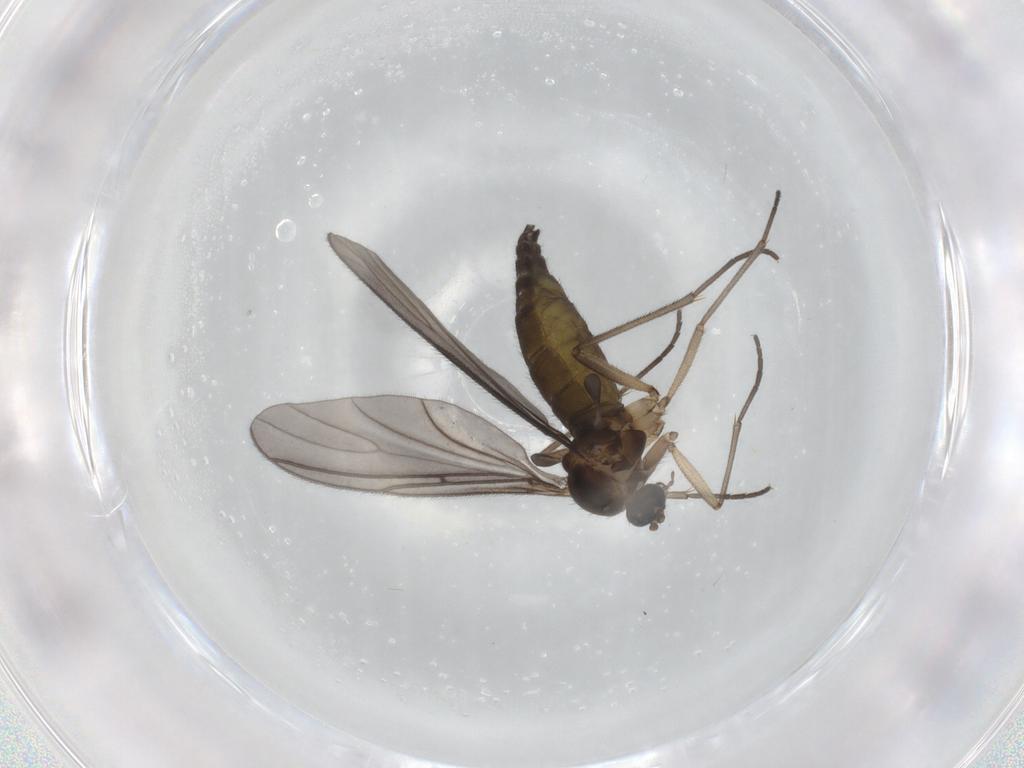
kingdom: Animalia
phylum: Arthropoda
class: Insecta
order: Diptera
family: Sciaridae
